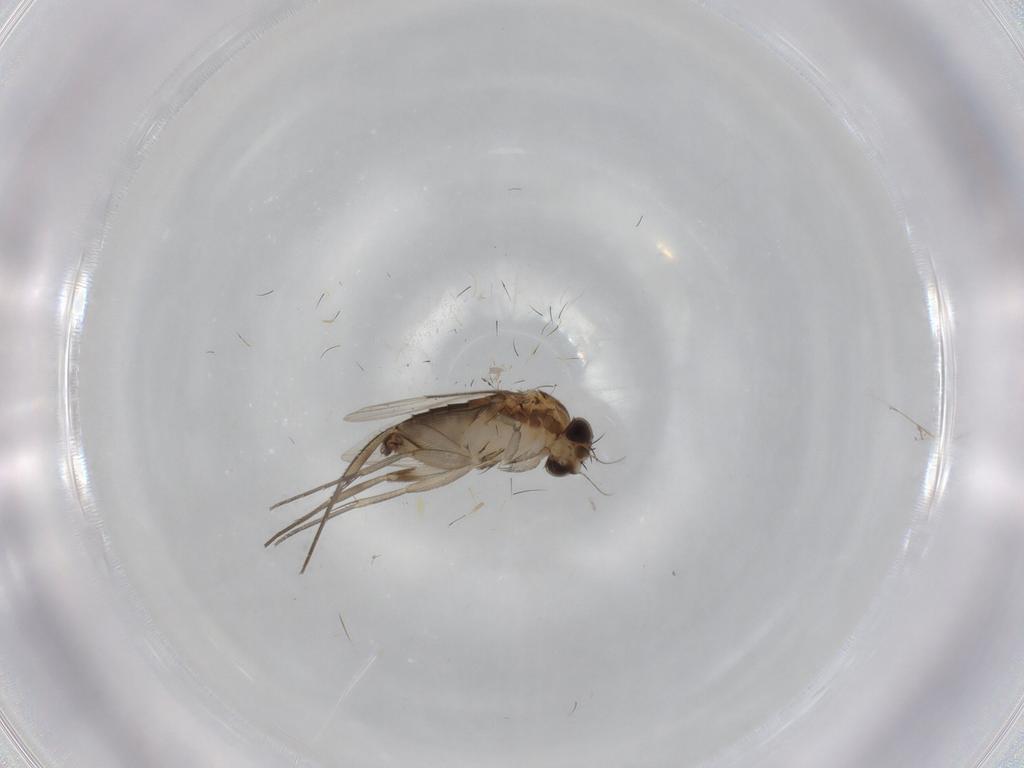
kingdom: Animalia
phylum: Arthropoda
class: Insecta
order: Diptera
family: Phoridae
